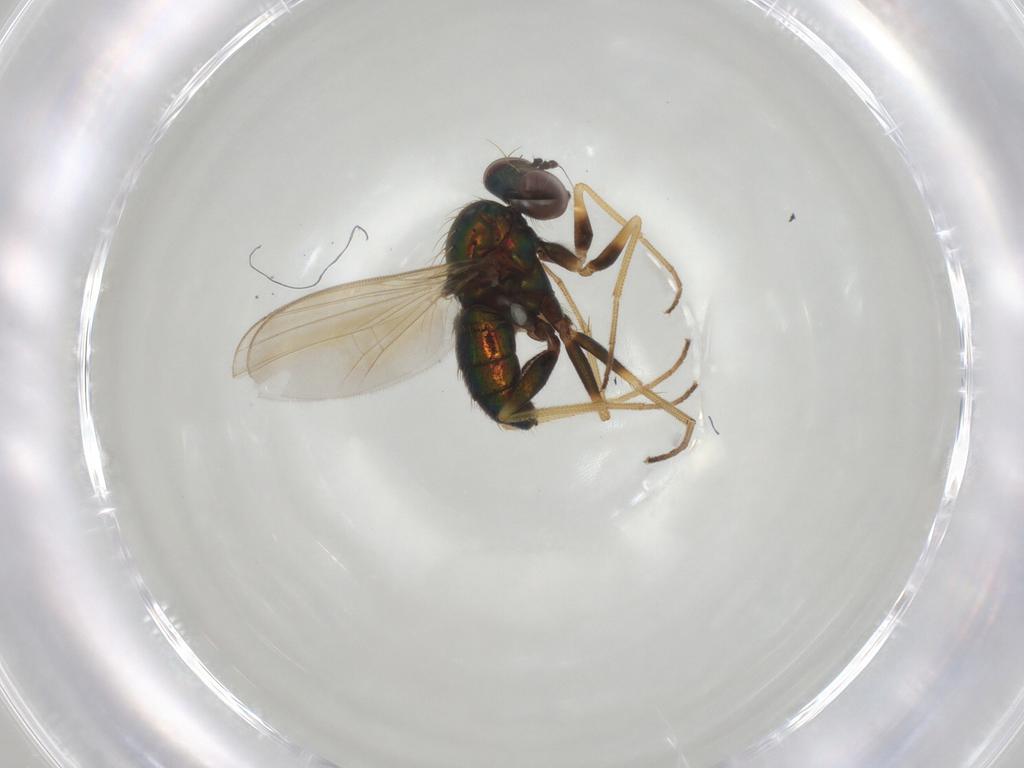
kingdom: Animalia
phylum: Arthropoda
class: Insecta
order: Diptera
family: Dolichopodidae
